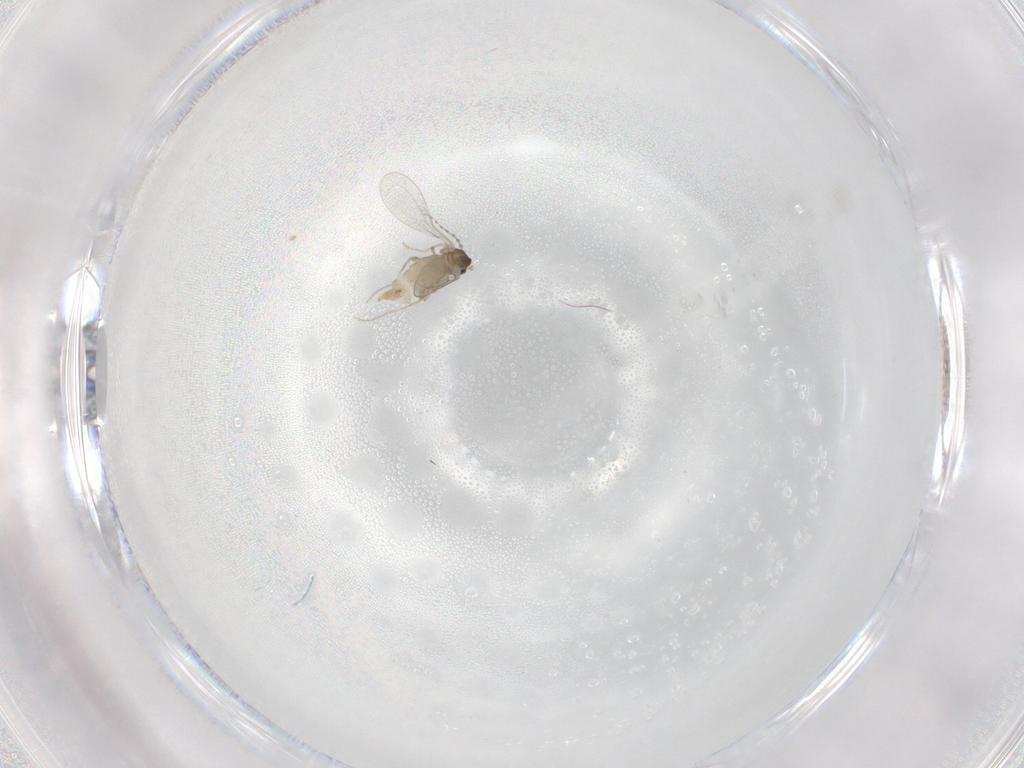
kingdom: Animalia
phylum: Arthropoda
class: Insecta
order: Diptera
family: Cecidomyiidae
